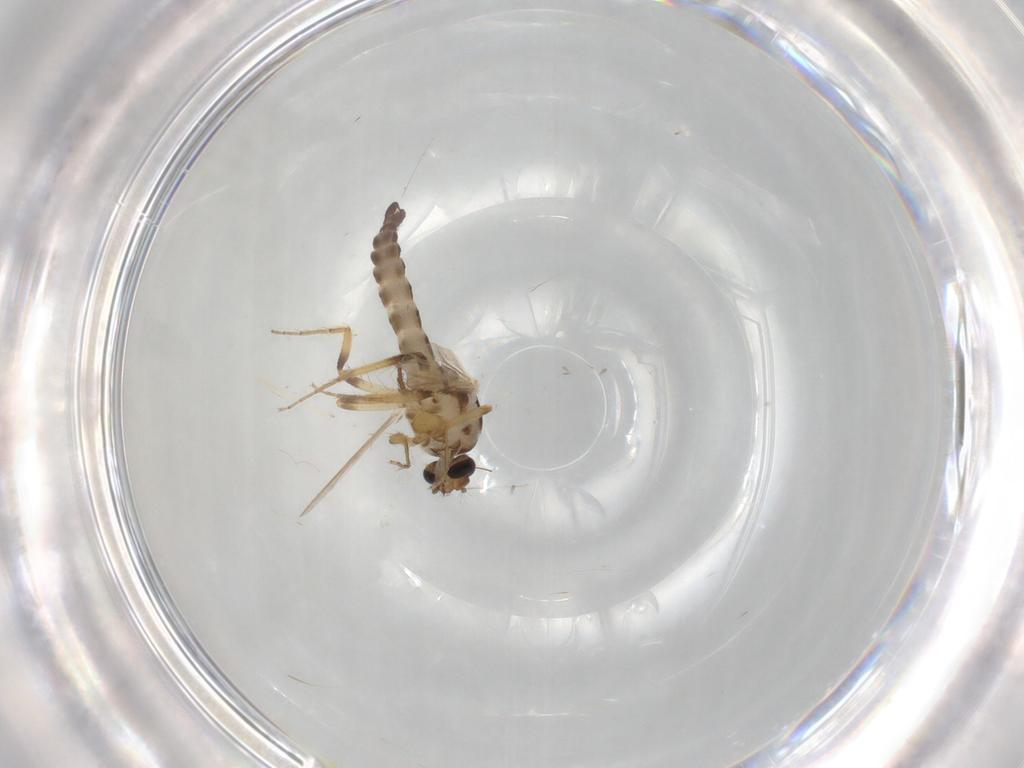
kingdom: Animalia
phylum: Arthropoda
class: Insecta
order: Diptera
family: Ceratopogonidae
